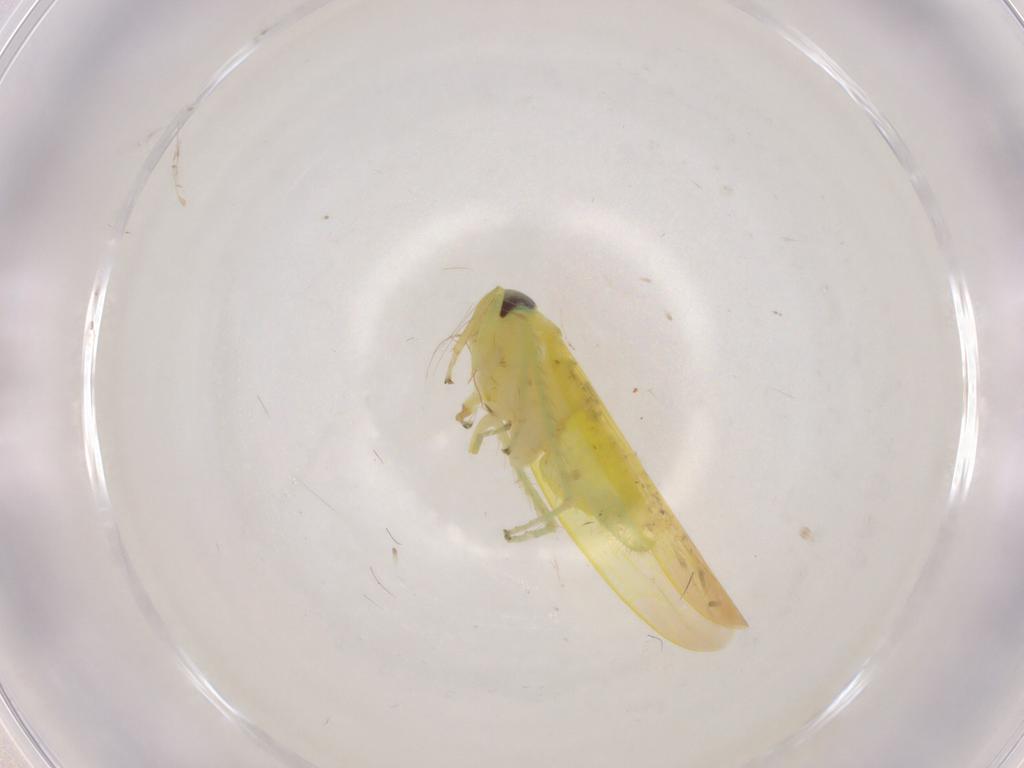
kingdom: Animalia
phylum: Arthropoda
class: Insecta
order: Hemiptera
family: Cicadellidae
